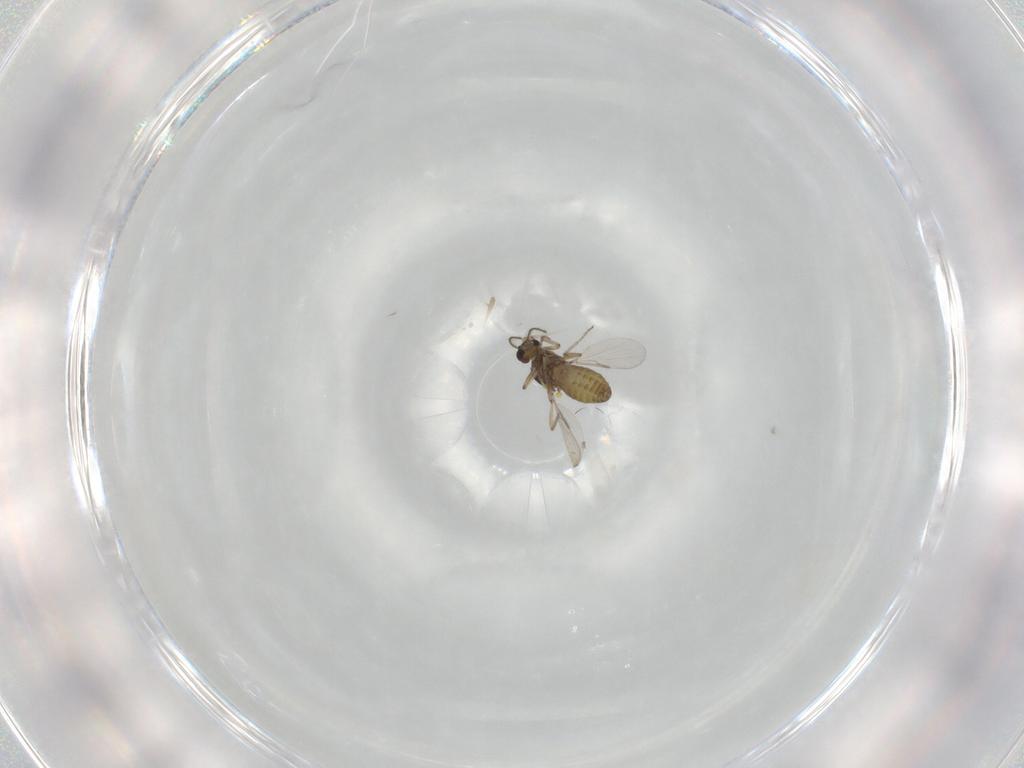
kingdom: Animalia
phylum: Arthropoda
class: Insecta
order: Diptera
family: Ceratopogonidae
